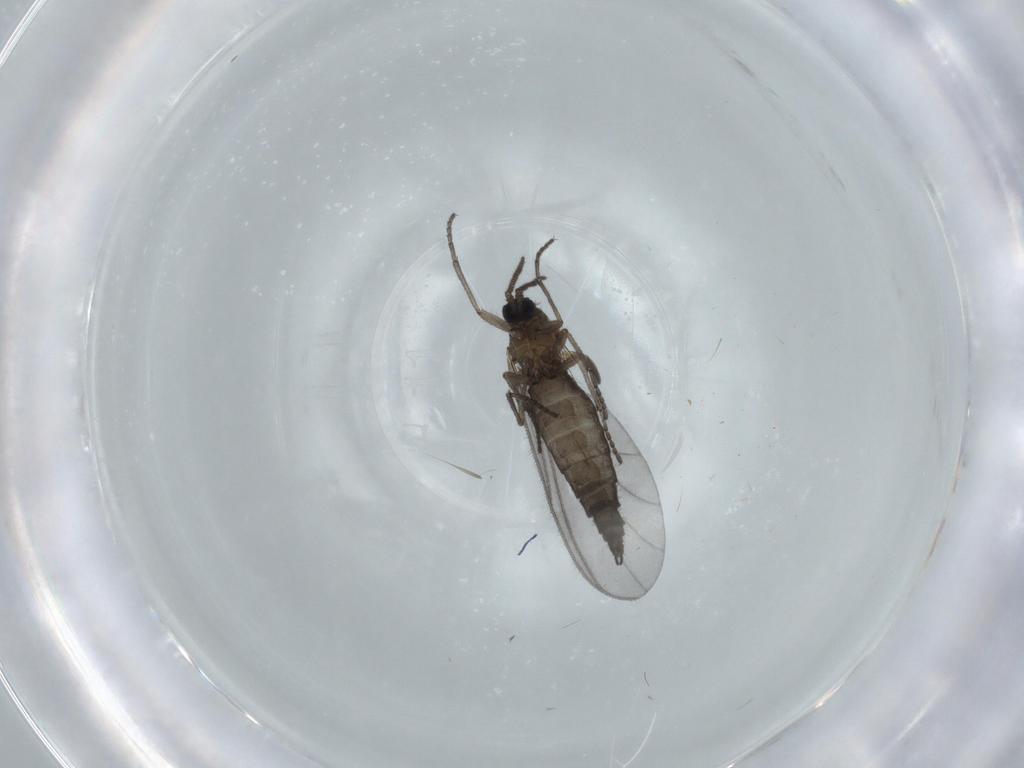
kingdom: Animalia
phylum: Arthropoda
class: Insecta
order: Diptera
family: Sciaridae
